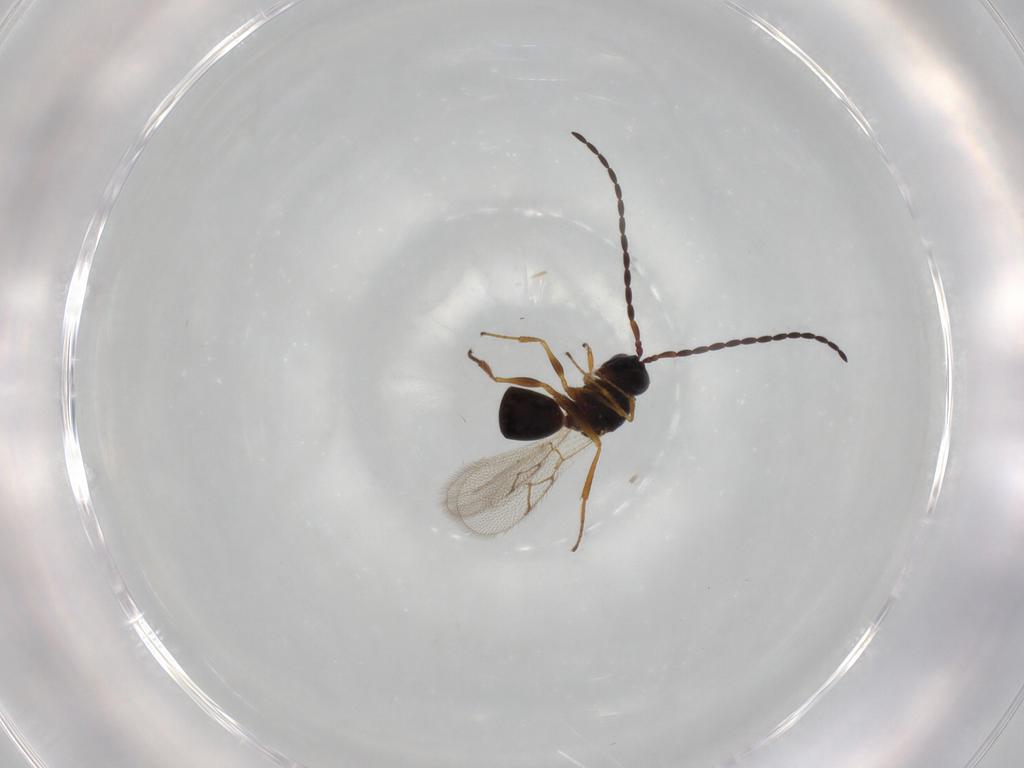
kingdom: Animalia
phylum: Arthropoda
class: Insecta
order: Hymenoptera
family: Figitidae
